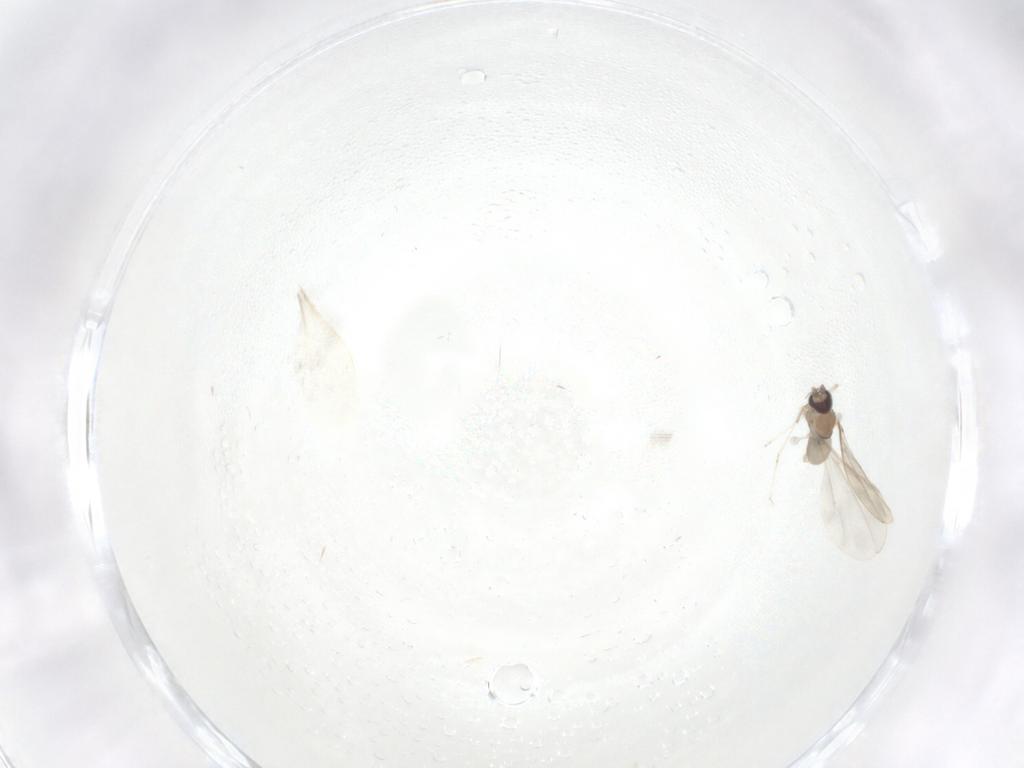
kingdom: Animalia
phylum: Arthropoda
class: Insecta
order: Diptera
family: Cecidomyiidae
